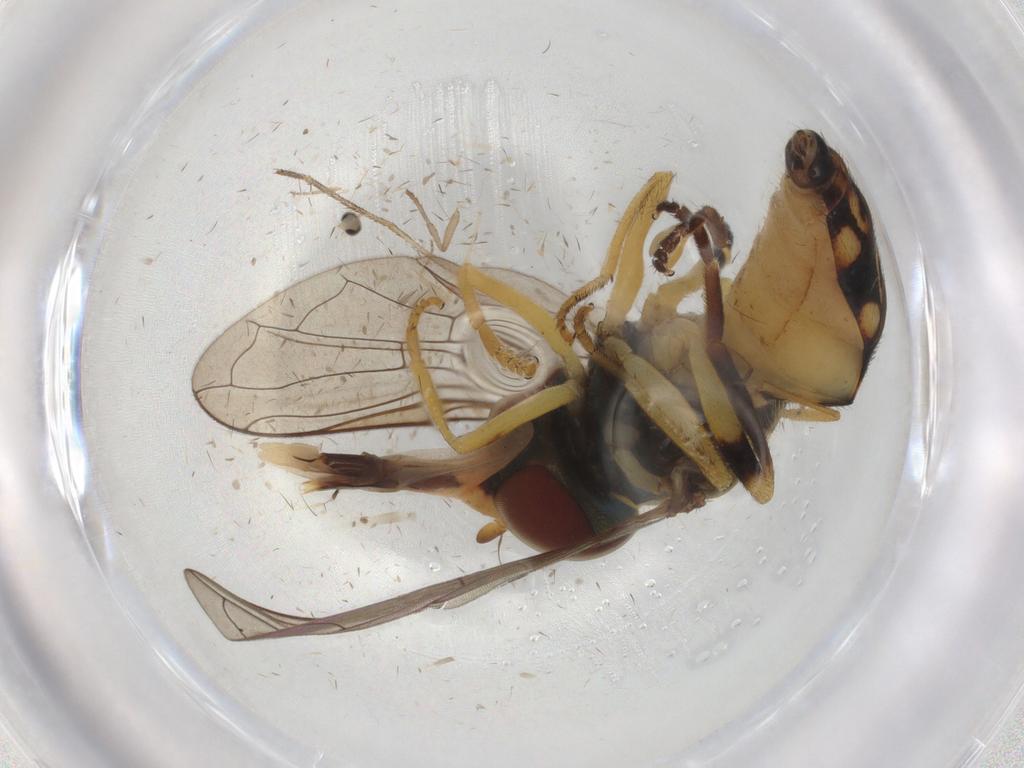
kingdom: Animalia
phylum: Arthropoda
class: Insecta
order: Diptera
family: Syrphidae
